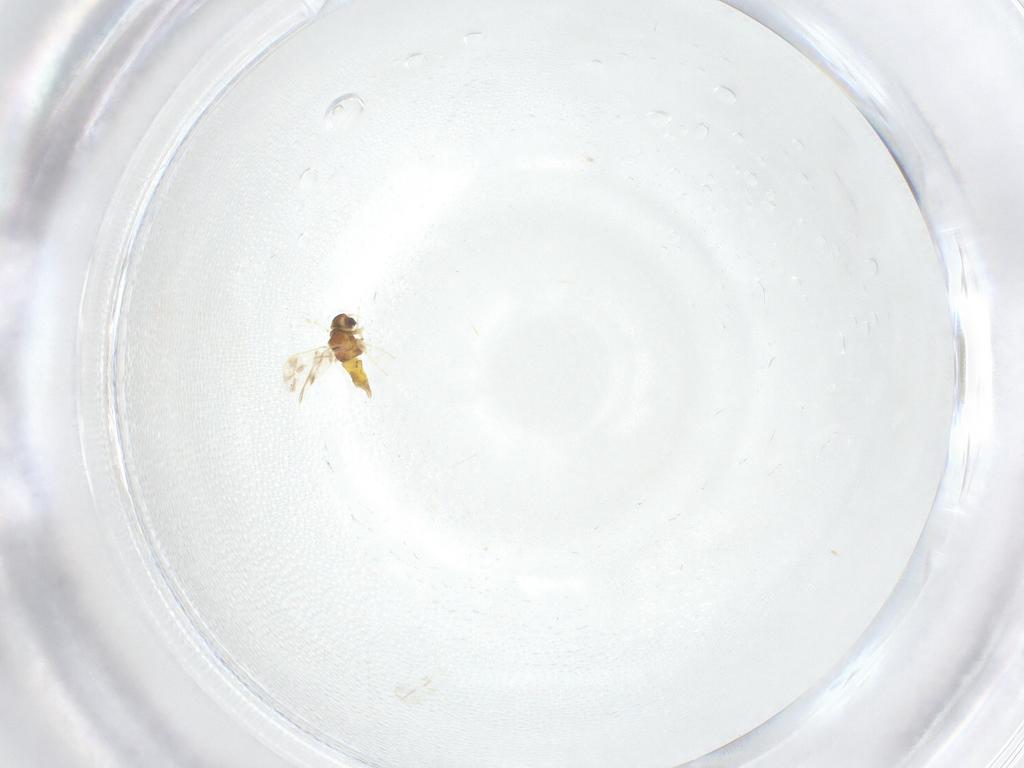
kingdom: Animalia
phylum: Arthropoda
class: Insecta
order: Hemiptera
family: Aleyrodidae
